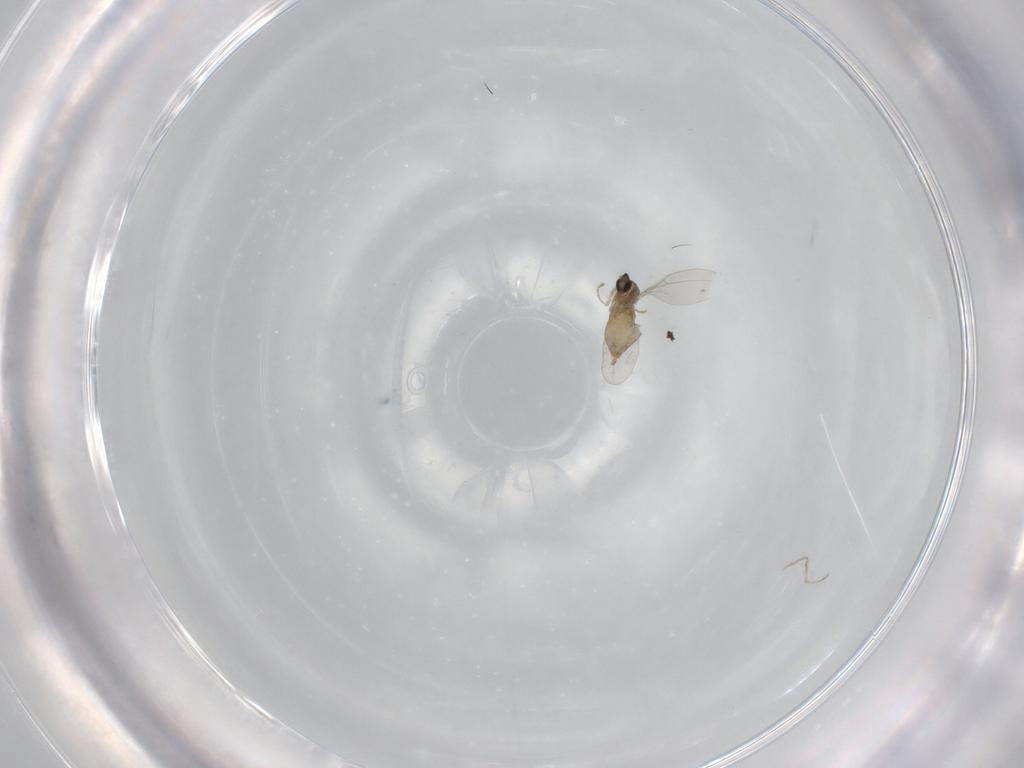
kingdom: Animalia
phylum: Arthropoda
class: Insecta
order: Diptera
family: Cecidomyiidae
